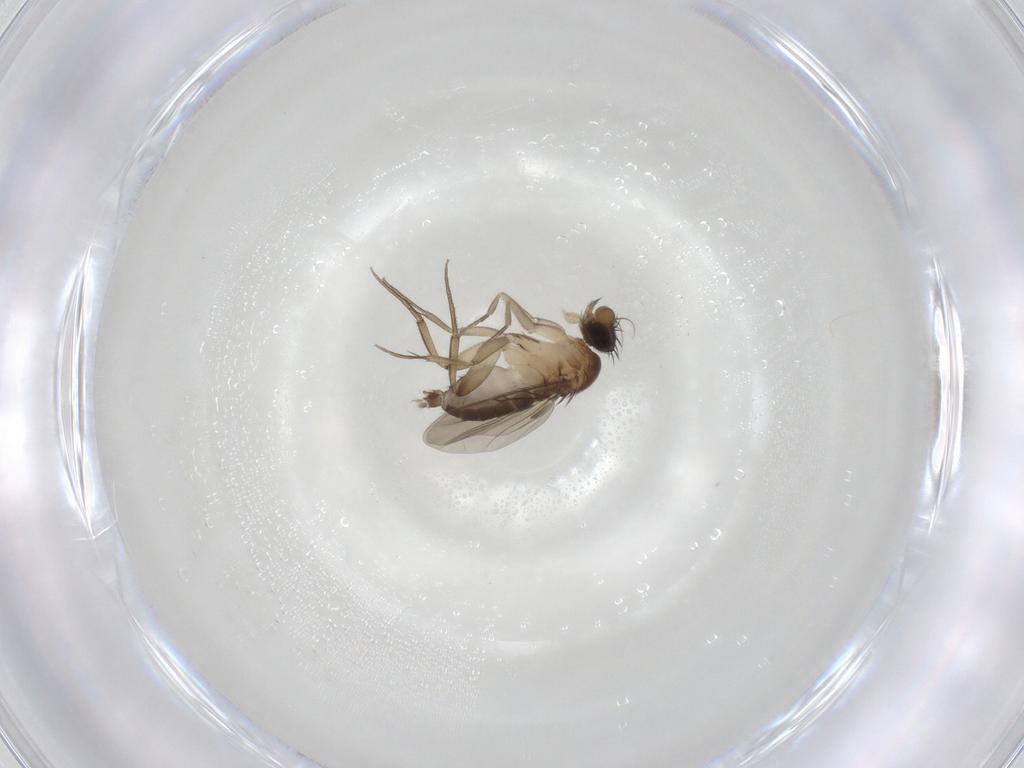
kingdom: Animalia
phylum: Arthropoda
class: Insecta
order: Diptera
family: Phoridae
